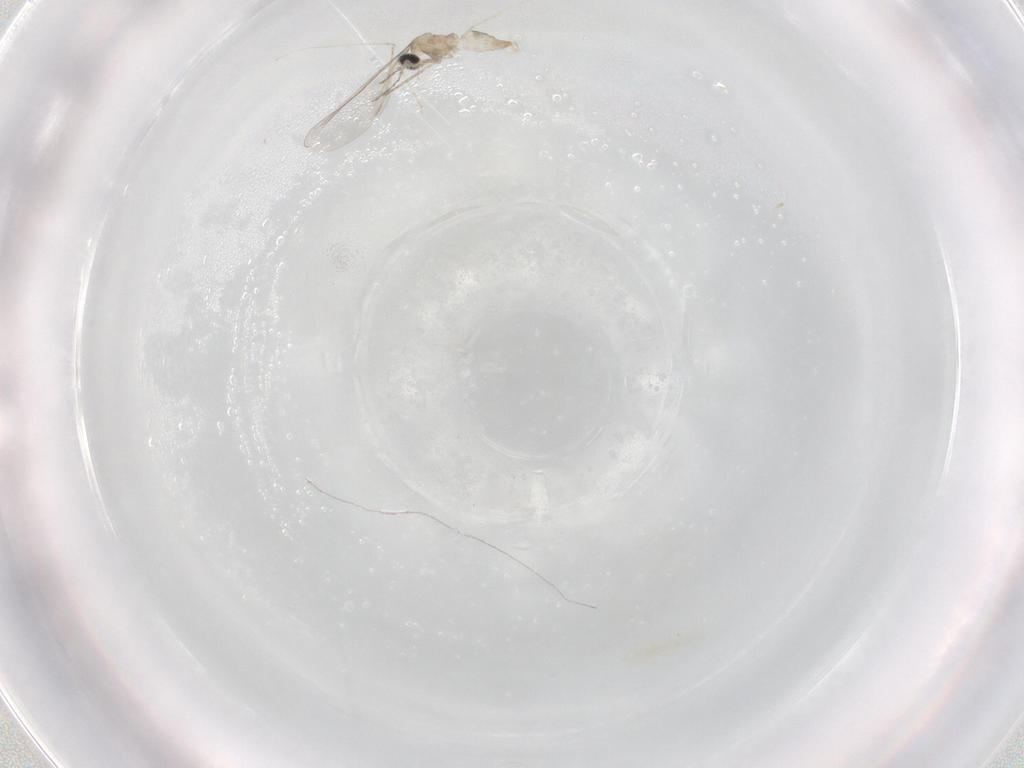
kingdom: Animalia
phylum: Arthropoda
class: Insecta
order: Diptera
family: Cecidomyiidae
